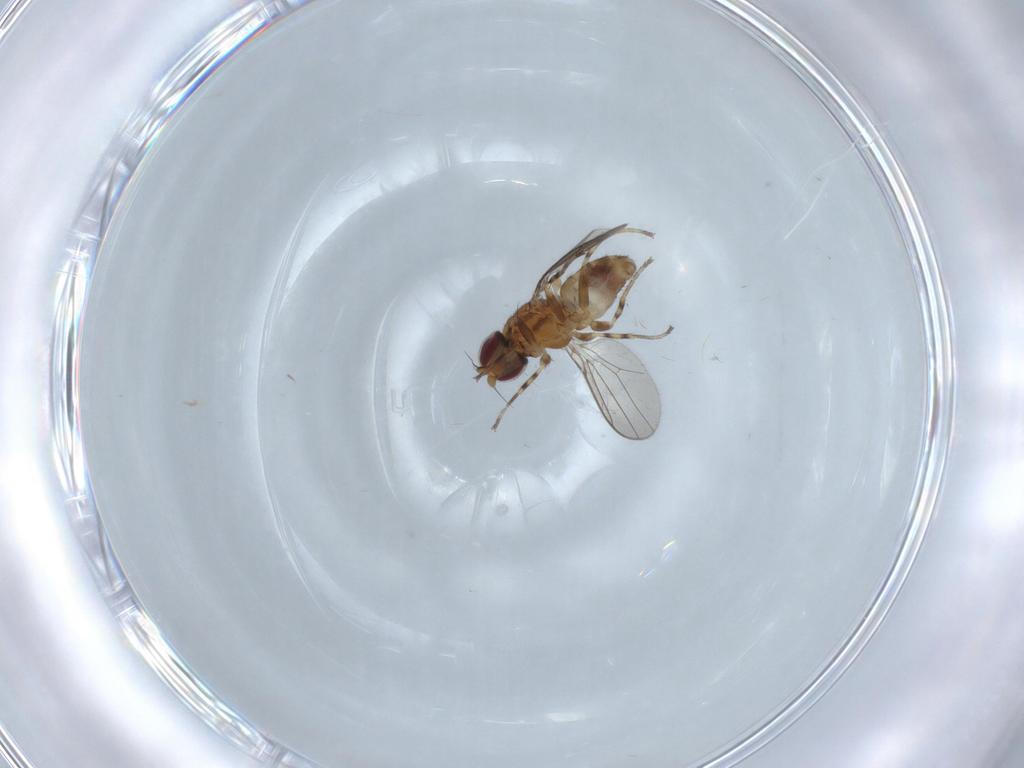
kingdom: Animalia
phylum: Arthropoda
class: Insecta
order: Diptera
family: Chloropidae
